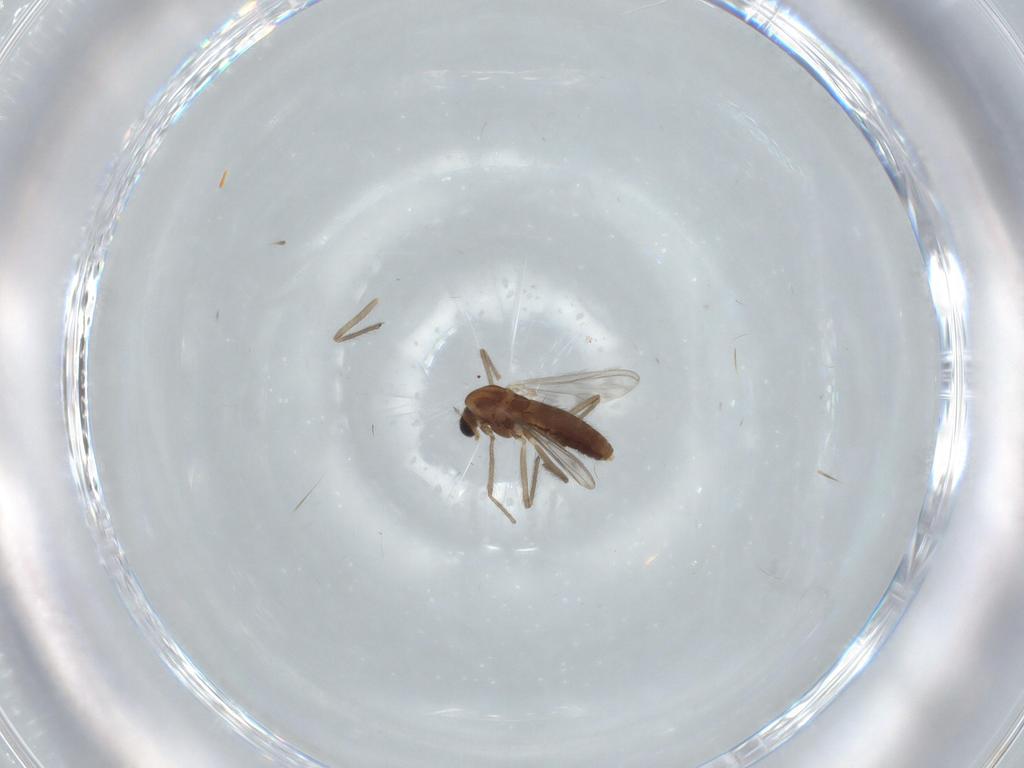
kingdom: Animalia
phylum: Arthropoda
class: Insecta
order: Diptera
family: Chironomidae
